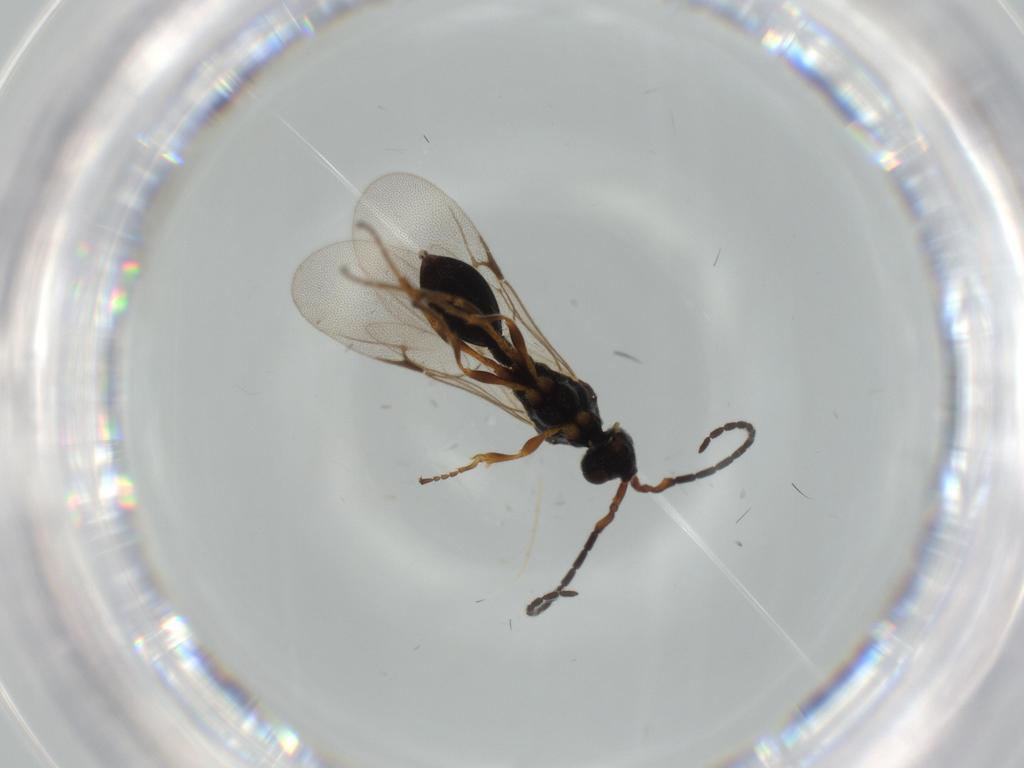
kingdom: Animalia
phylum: Arthropoda
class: Insecta
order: Hymenoptera
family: Ichneumonidae
